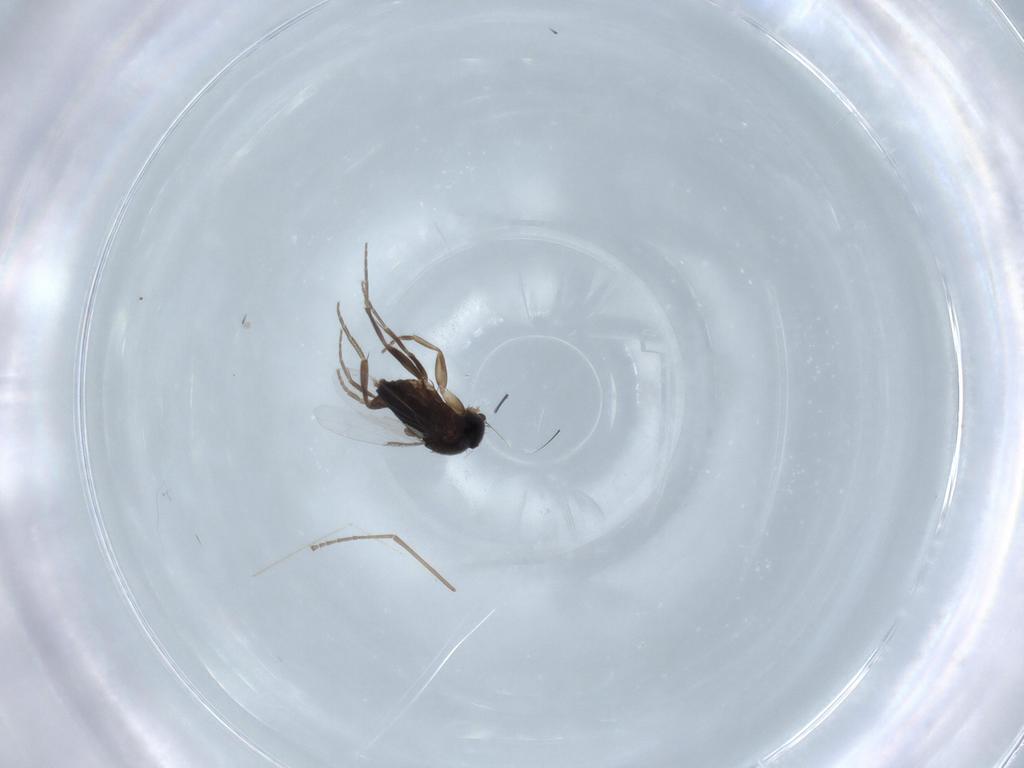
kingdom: Animalia
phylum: Arthropoda
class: Insecta
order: Diptera
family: Phoridae
